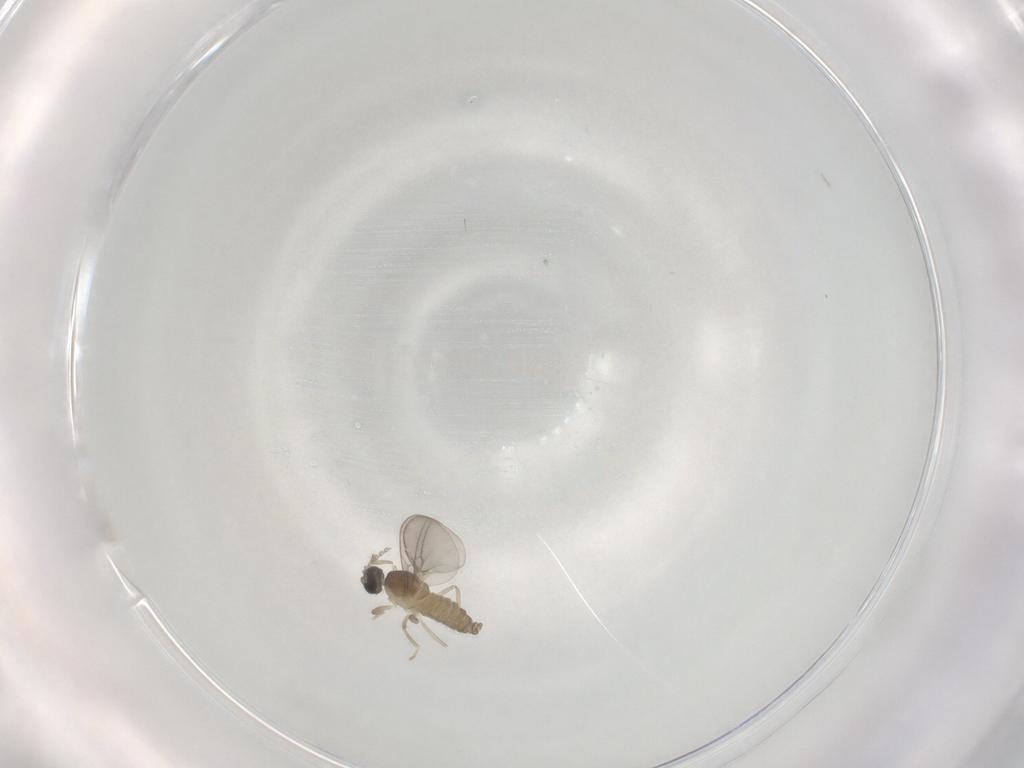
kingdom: Animalia
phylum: Arthropoda
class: Insecta
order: Diptera
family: Cecidomyiidae
